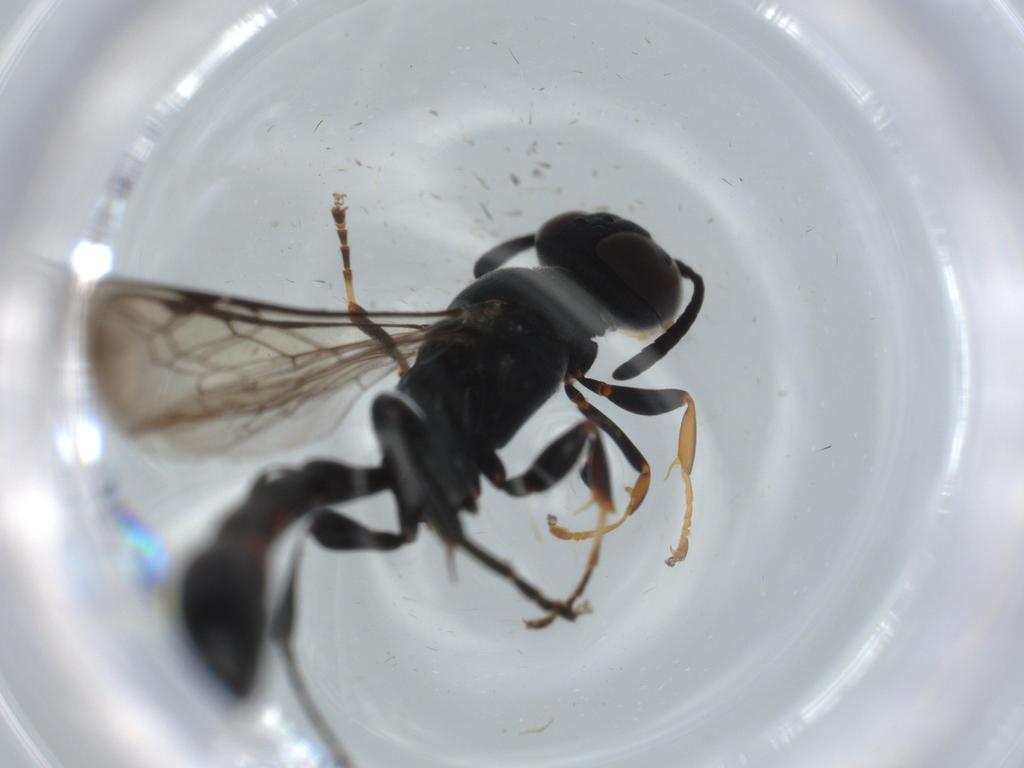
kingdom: Animalia
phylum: Arthropoda
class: Insecta
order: Hymenoptera
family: Crabronidae
